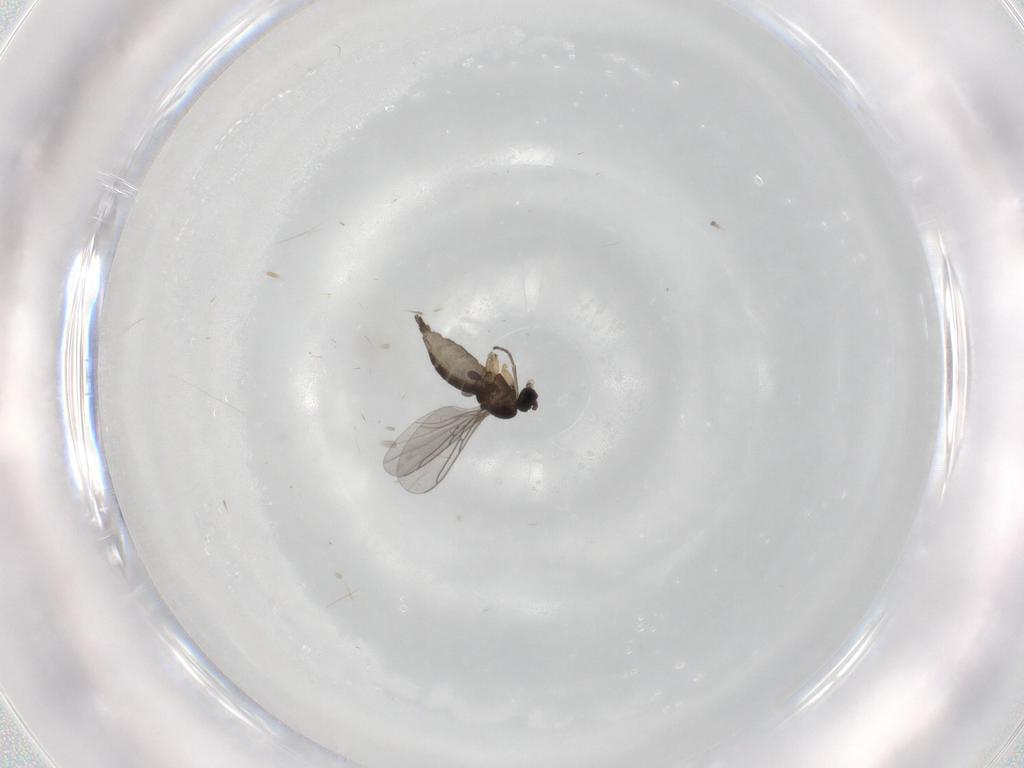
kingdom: Animalia
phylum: Arthropoda
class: Insecta
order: Diptera
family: Sciaridae
